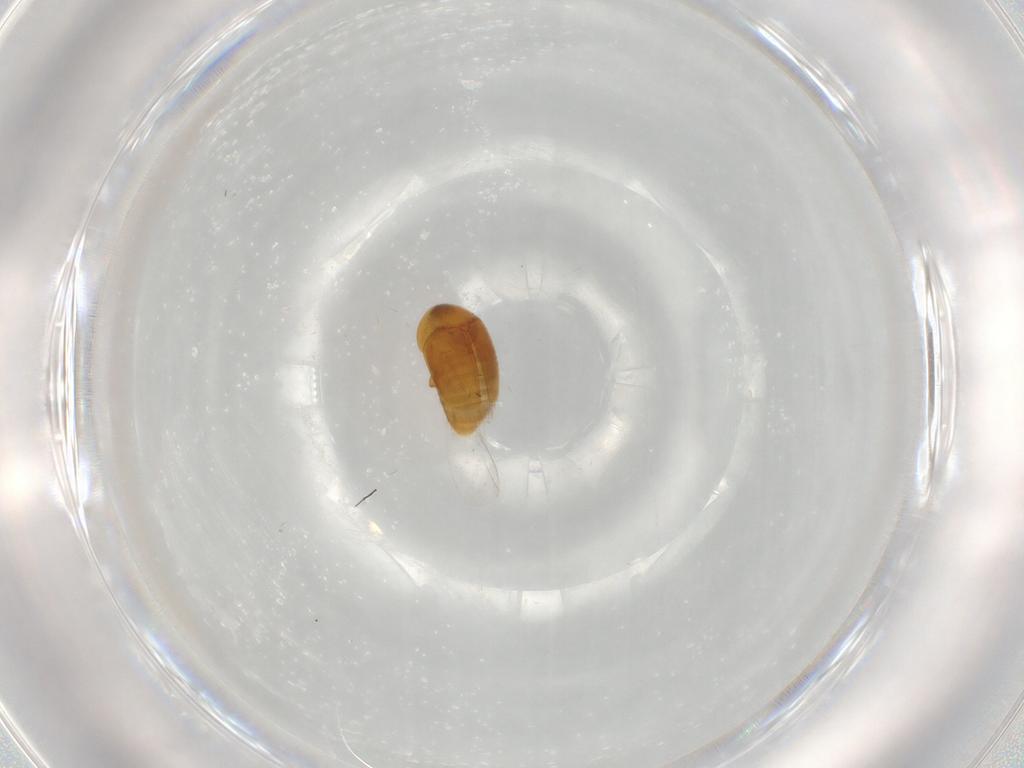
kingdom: Animalia
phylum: Arthropoda
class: Insecta
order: Coleoptera
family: Corylophidae
